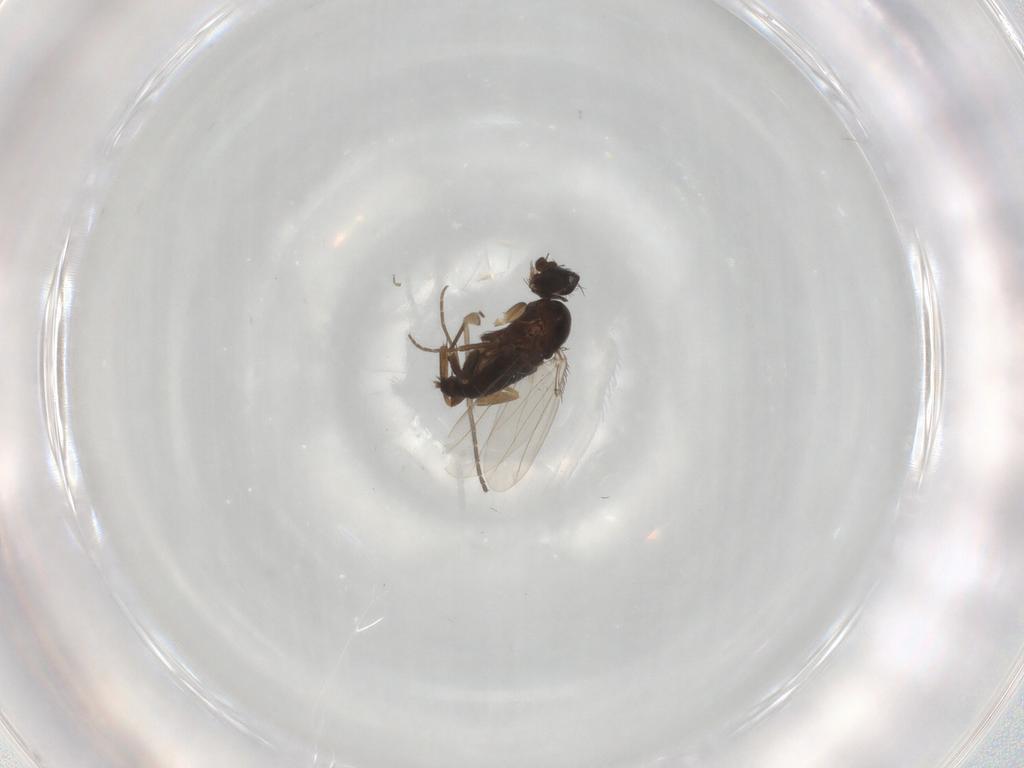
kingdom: Animalia
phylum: Arthropoda
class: Insecta
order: Diptera
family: Phoridae
